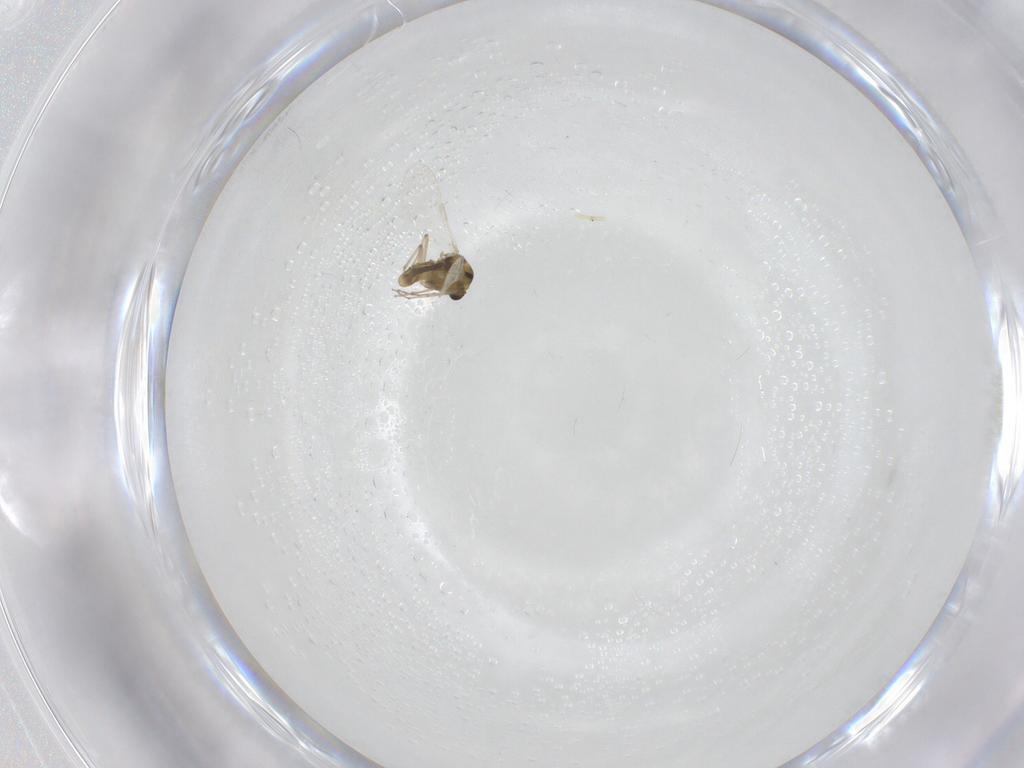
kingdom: Animalia
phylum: Arthropoda
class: Insecta
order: Diptera
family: Chironomidae
